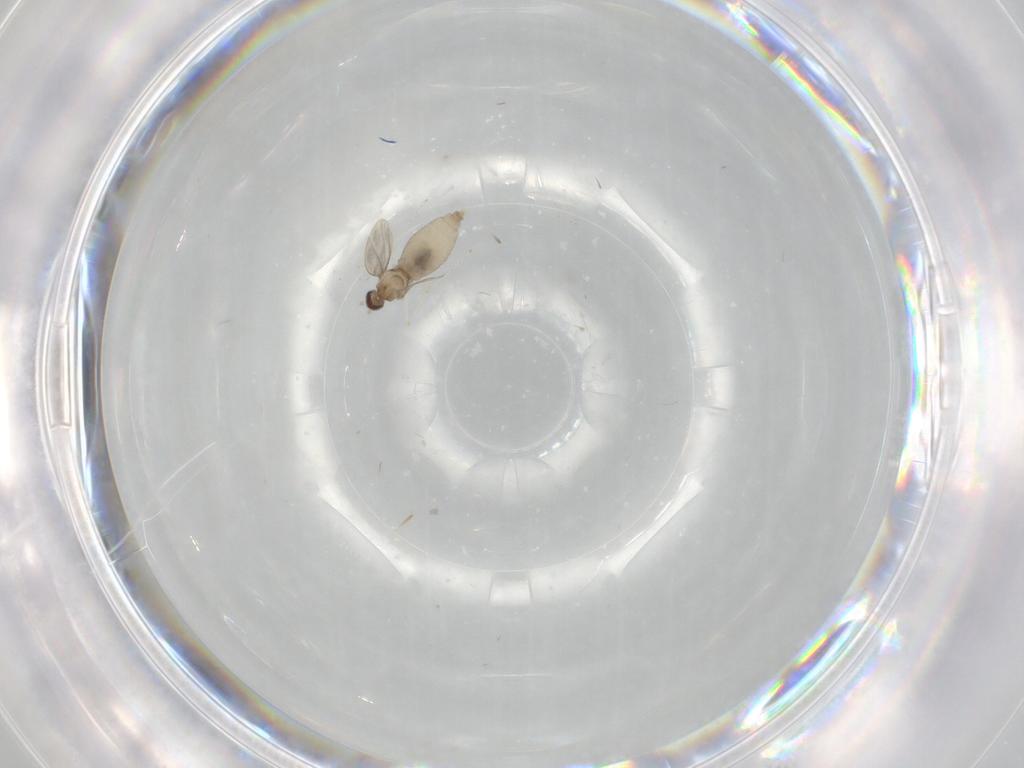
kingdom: Animalia
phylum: Arthropoda
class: Insecta
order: Diptera
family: Cecidomyiidae
